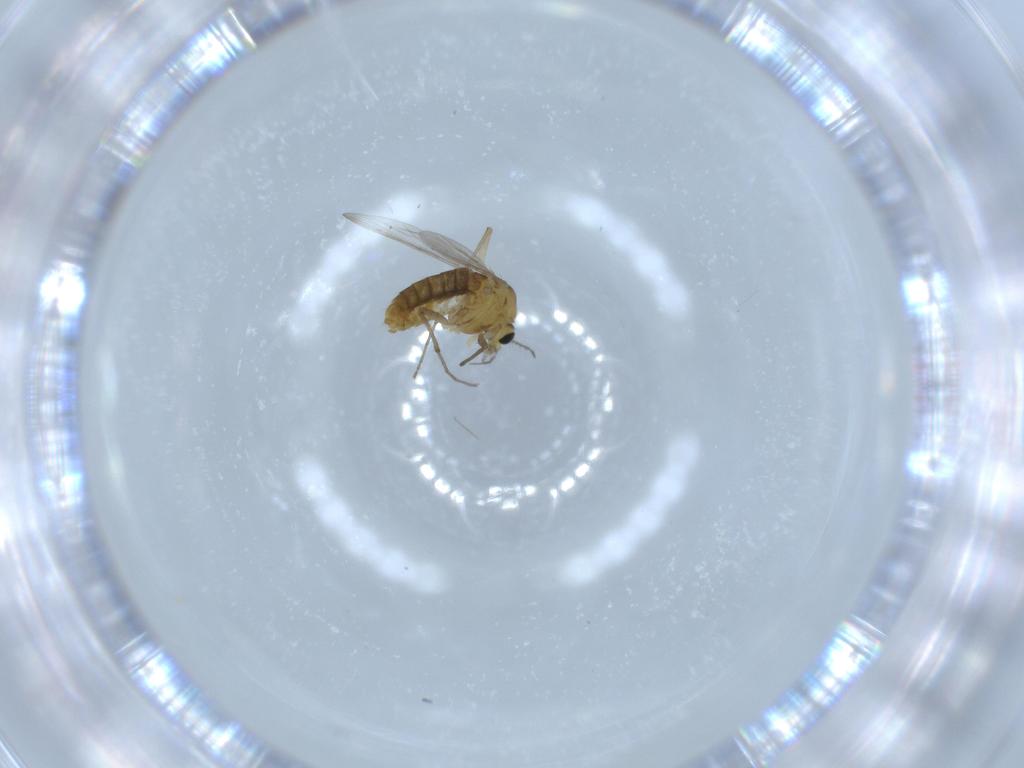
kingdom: Animalia
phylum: Arthropoda
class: Insecta
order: Diptera
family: Chironomidae
